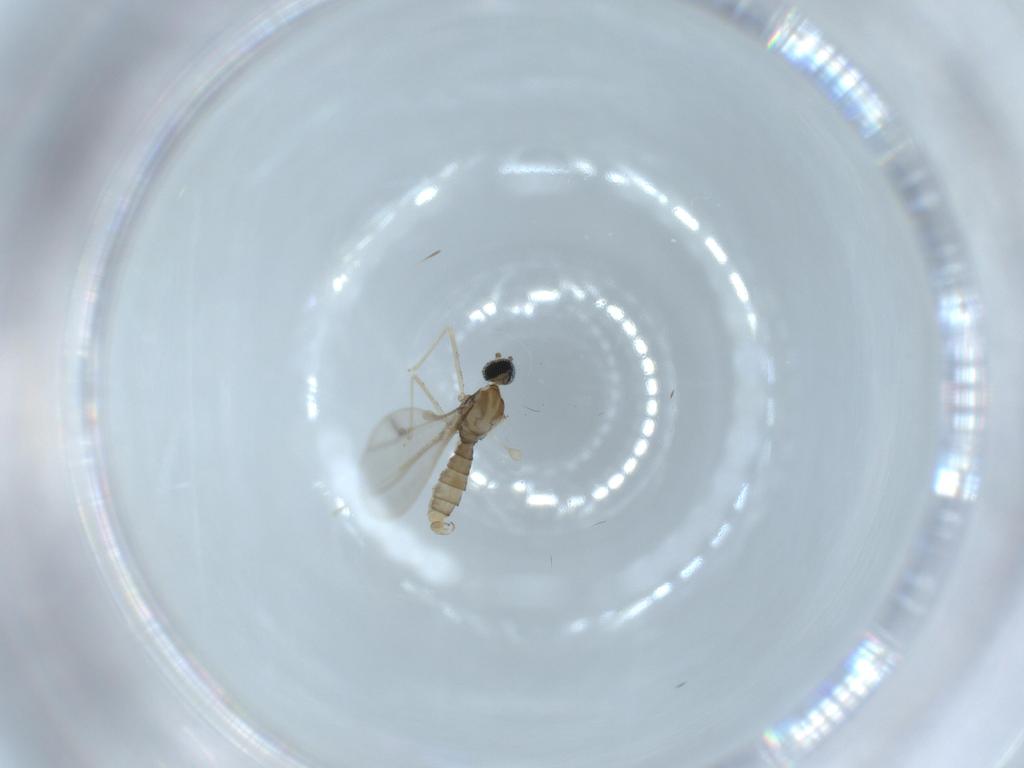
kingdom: Animalia
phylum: Arthropoda
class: Insecta
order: Diptera
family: Cecidomyiidae
